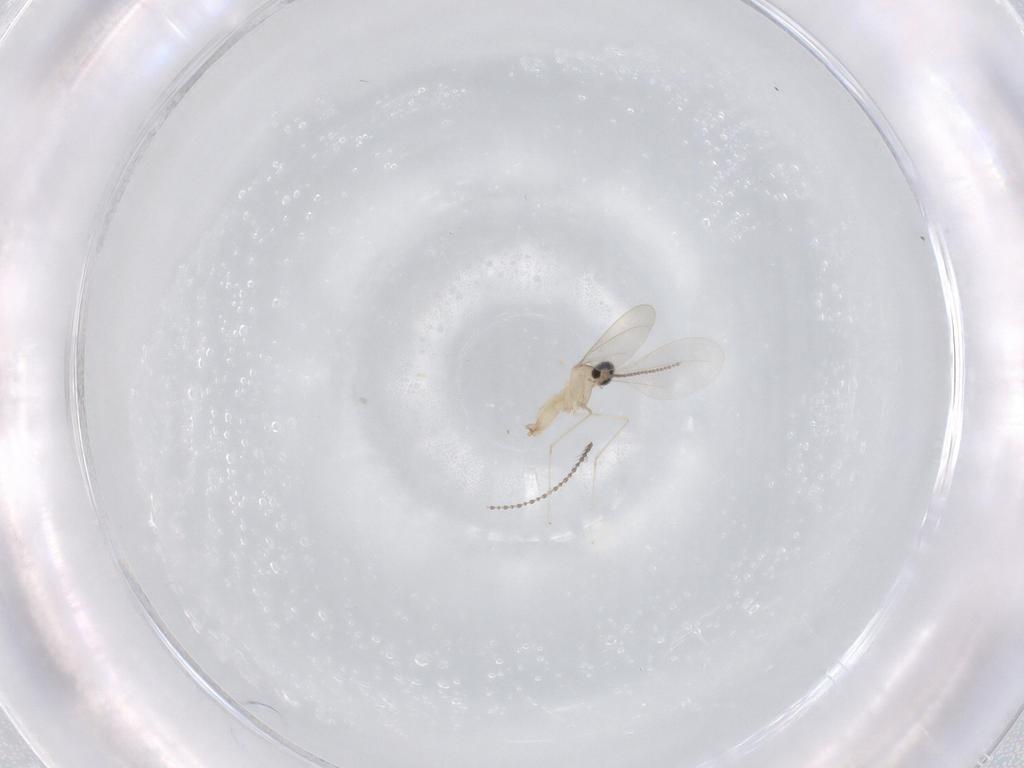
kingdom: Animalia
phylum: Arthropoda
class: Insecta
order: Diptera
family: Cecidomyiidae
